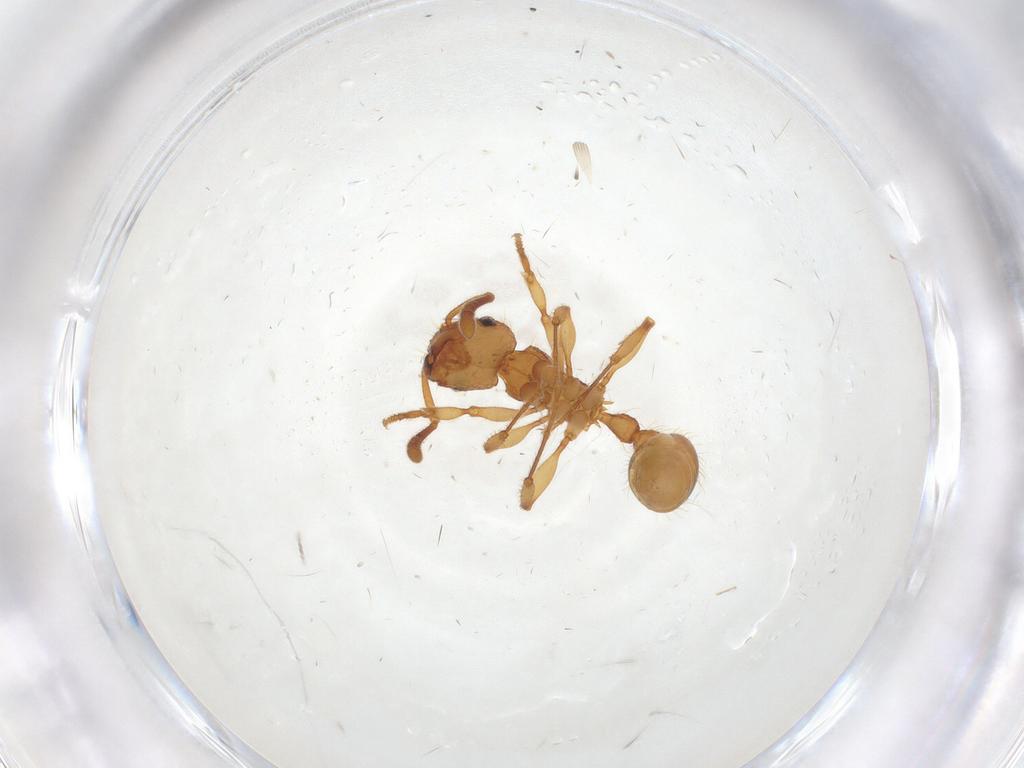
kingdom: Animalia
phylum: Arthropoda
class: Insecta
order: Hymenoptera
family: Formicidae
